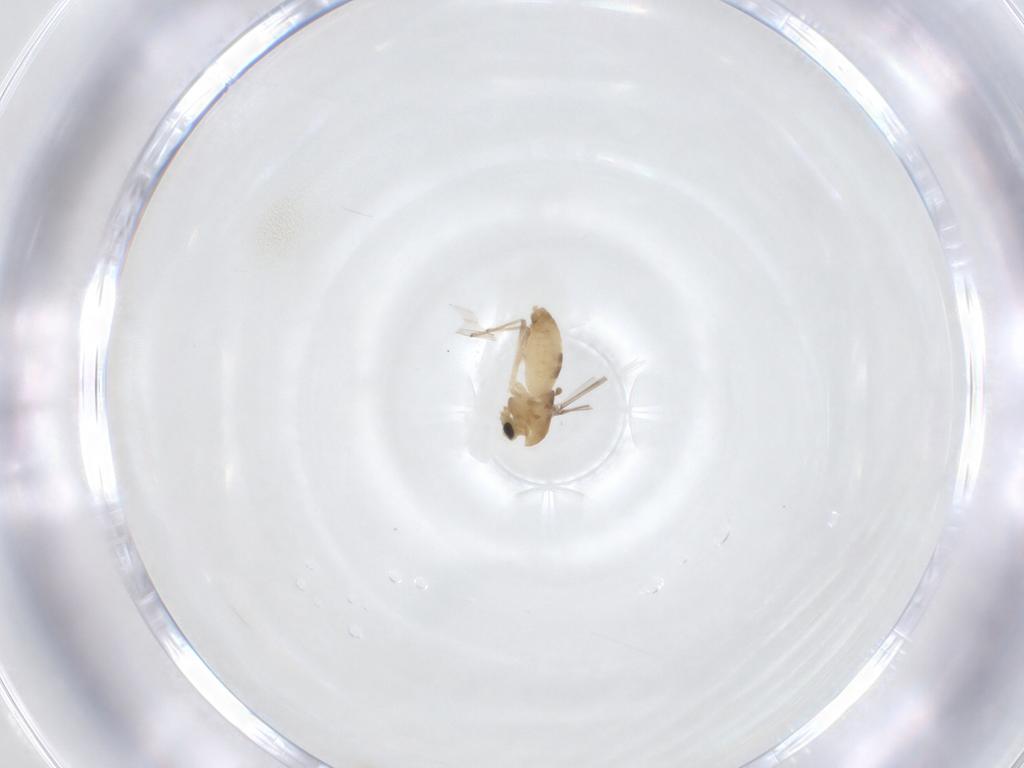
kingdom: Animalia
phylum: Arthropoda
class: Insecta
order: Diptera
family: Chironomidae
